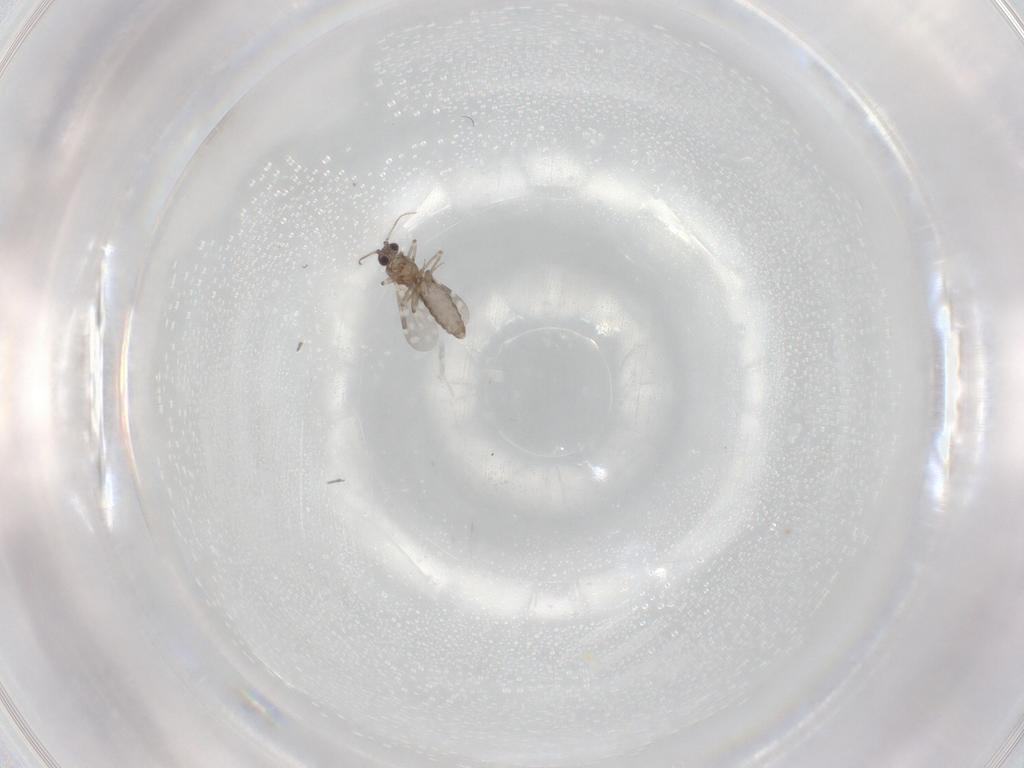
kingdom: Animalia
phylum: Arthropoda
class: Insecta
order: Diptera
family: Ceratopogonidae
